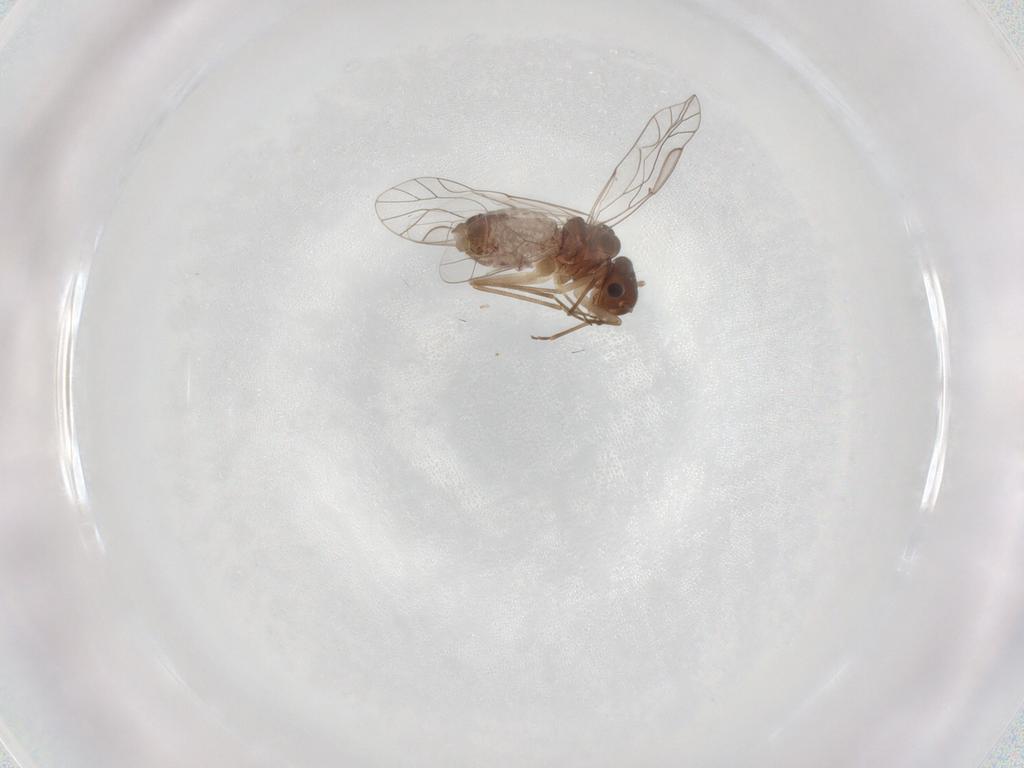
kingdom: Animalia
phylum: Arthropoda
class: Insecta
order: Psocodea
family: Lachesillidae
